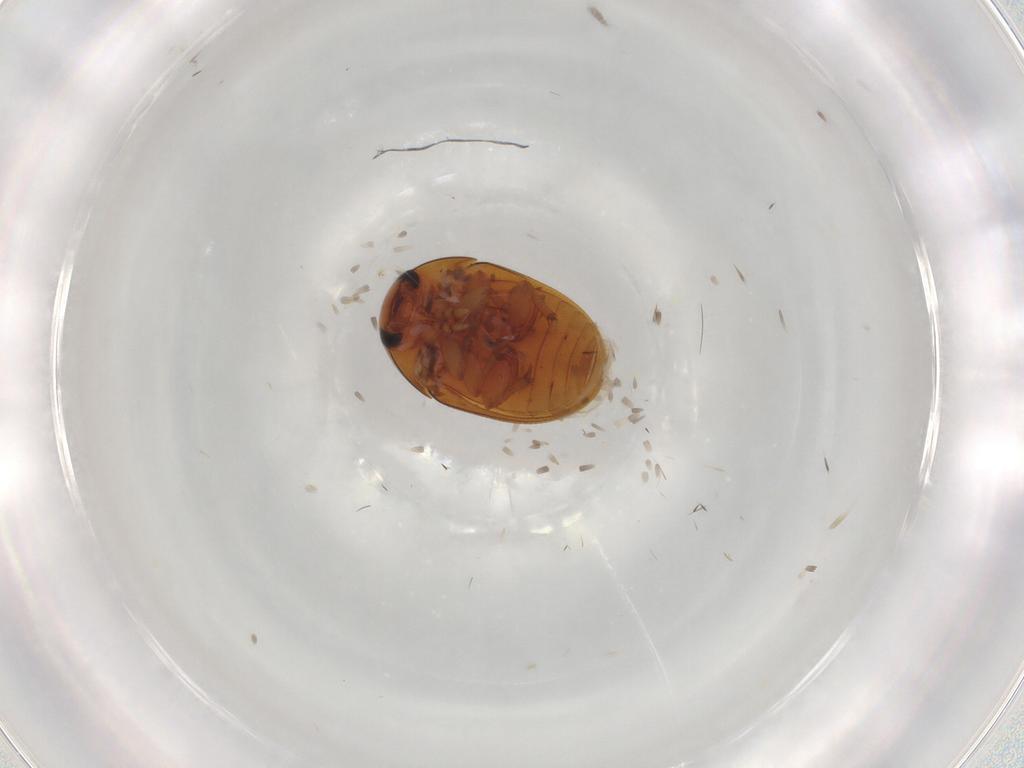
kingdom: Animalia
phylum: Arthropoda
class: Insecta
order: Coleoptera
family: Phalacridae
